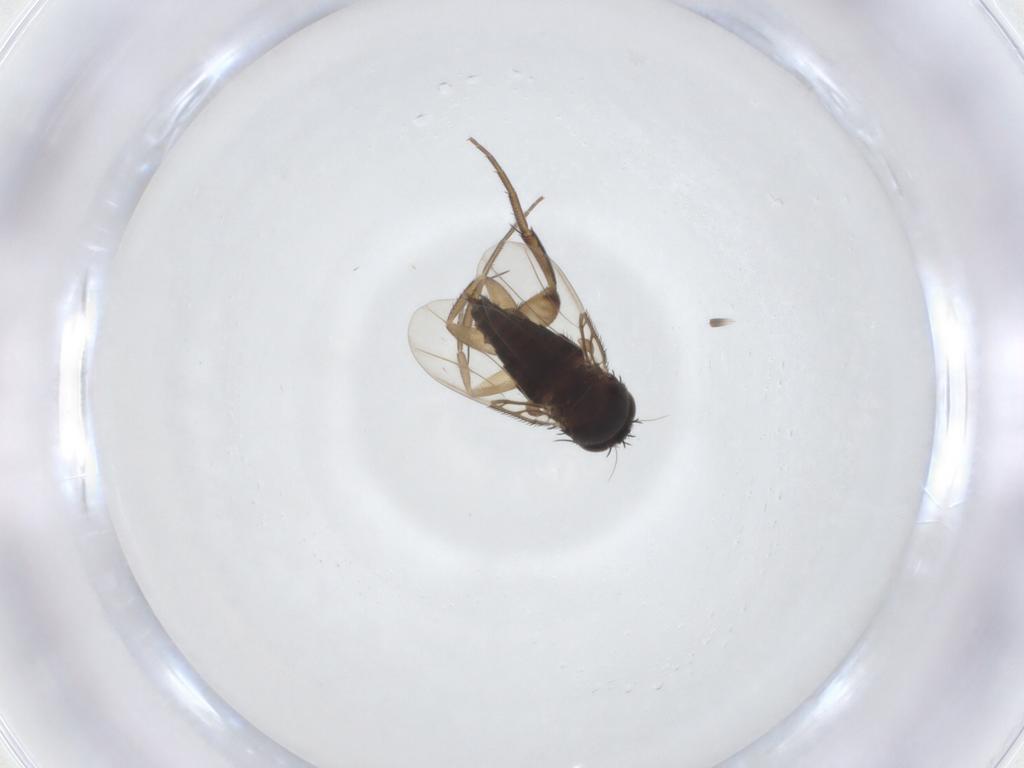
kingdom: Animalia
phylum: Arthropoda
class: Insecta
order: Diptera
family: Phoridae
